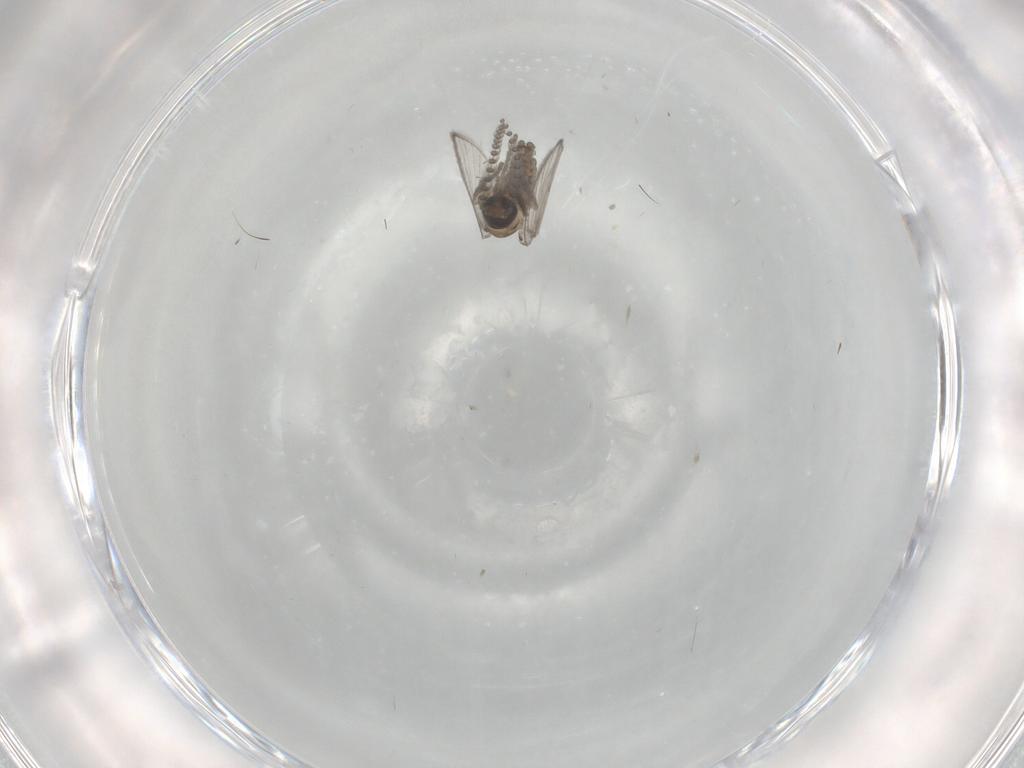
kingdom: Animalia
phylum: Arthropoda
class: Insecta
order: Diptera
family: Psychodidae
